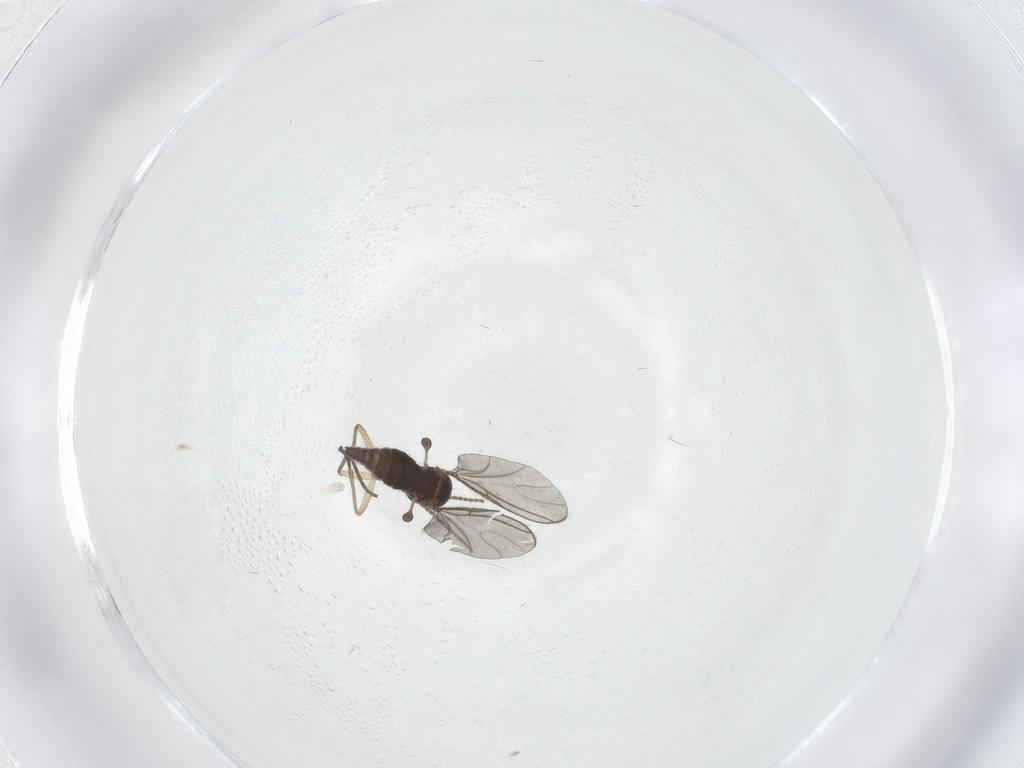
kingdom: Animalia
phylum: Arthropoda
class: Insecta
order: Diptera
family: Sciaridae
